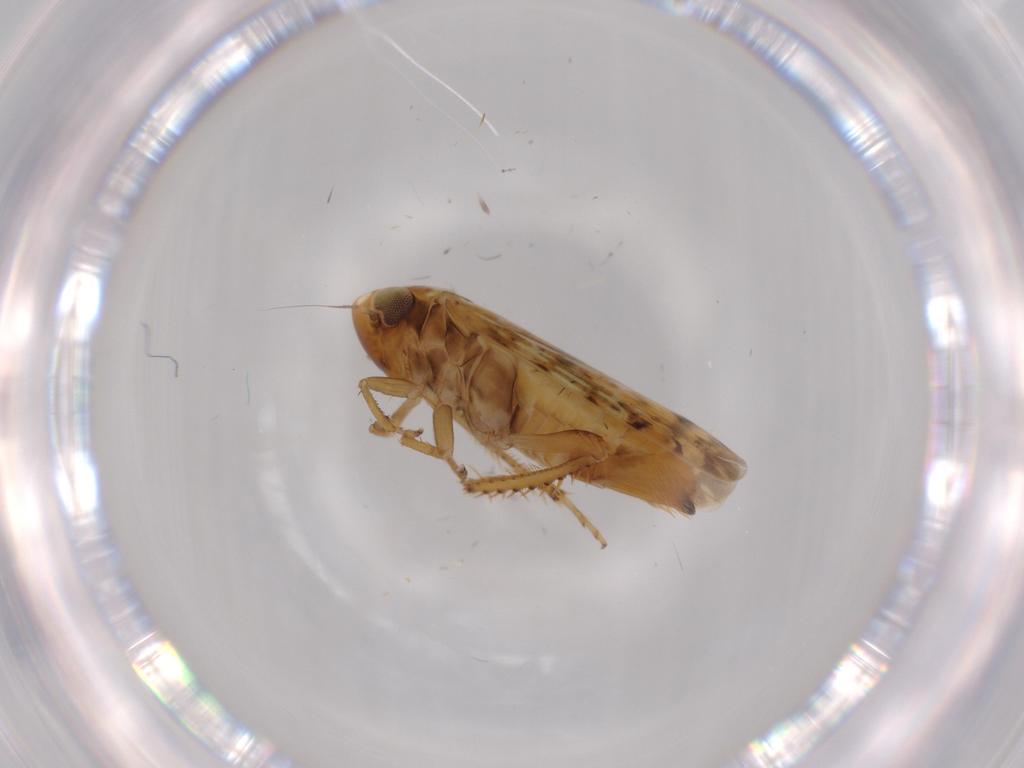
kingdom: Animalia
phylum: Arthropoda
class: Insecta
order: Hemiptera
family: Cicadellidae
